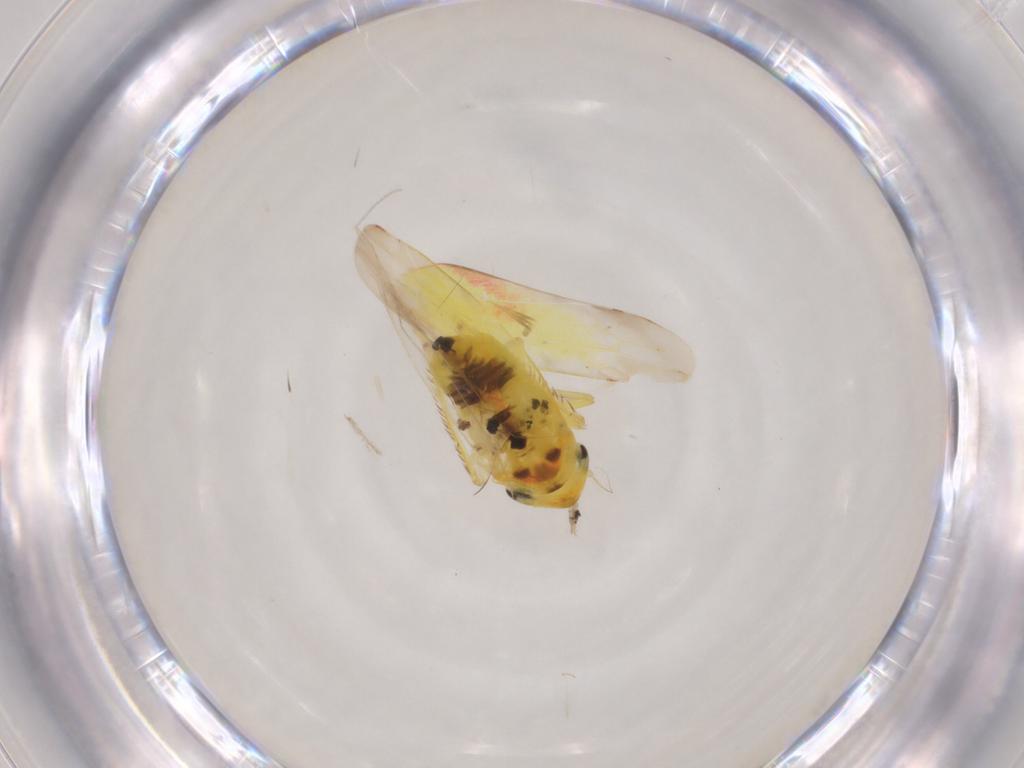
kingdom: Animalia
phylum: Arthropoda
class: Insecta
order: Hemiptera
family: Cicadellidae
